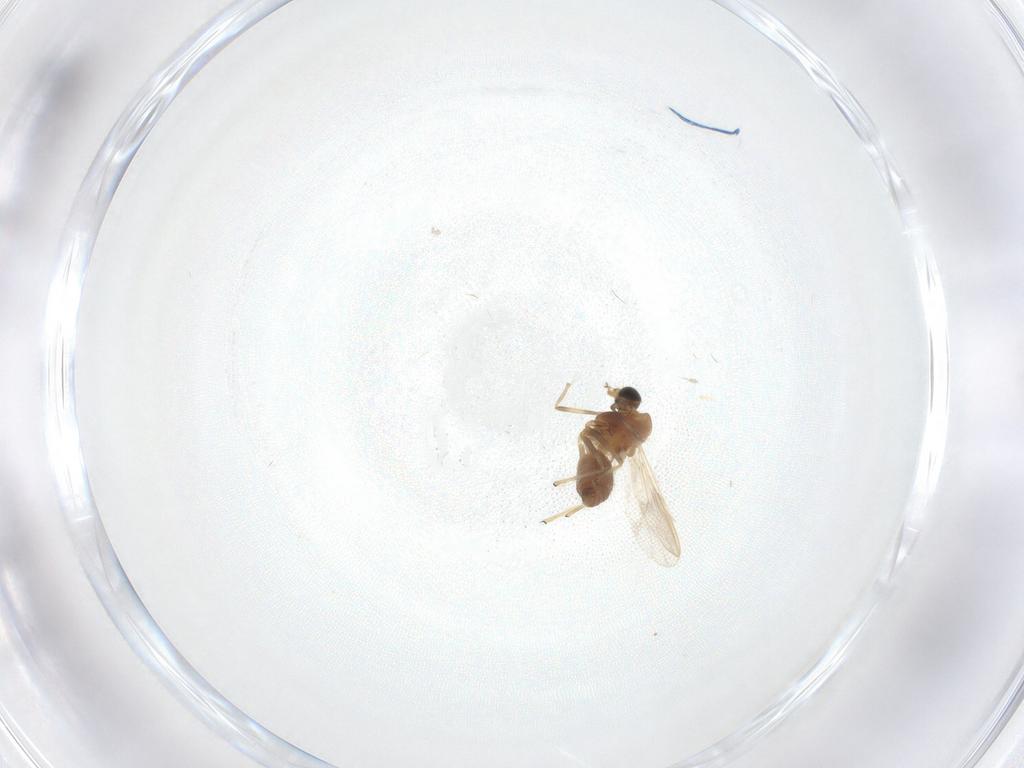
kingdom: Animalia
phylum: Arthropoda
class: Insecta
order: Diptera
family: Chironomidae
